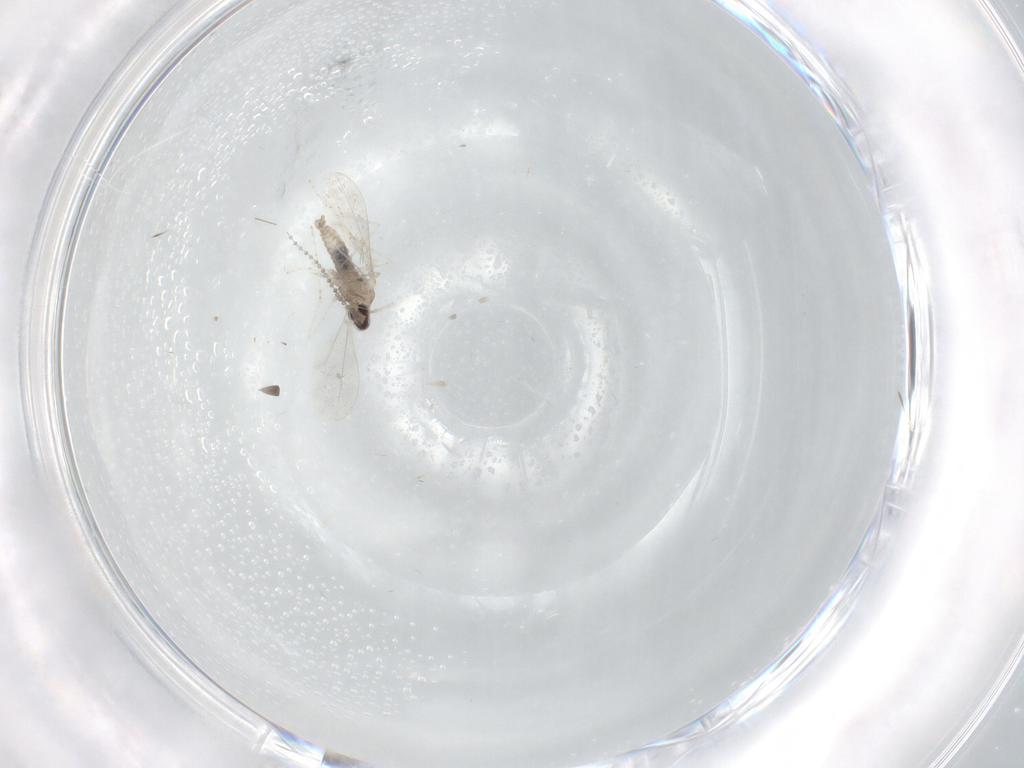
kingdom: Animalia
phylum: Arthropoda
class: Insecta
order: Diptera
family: Cecidomyiidae
